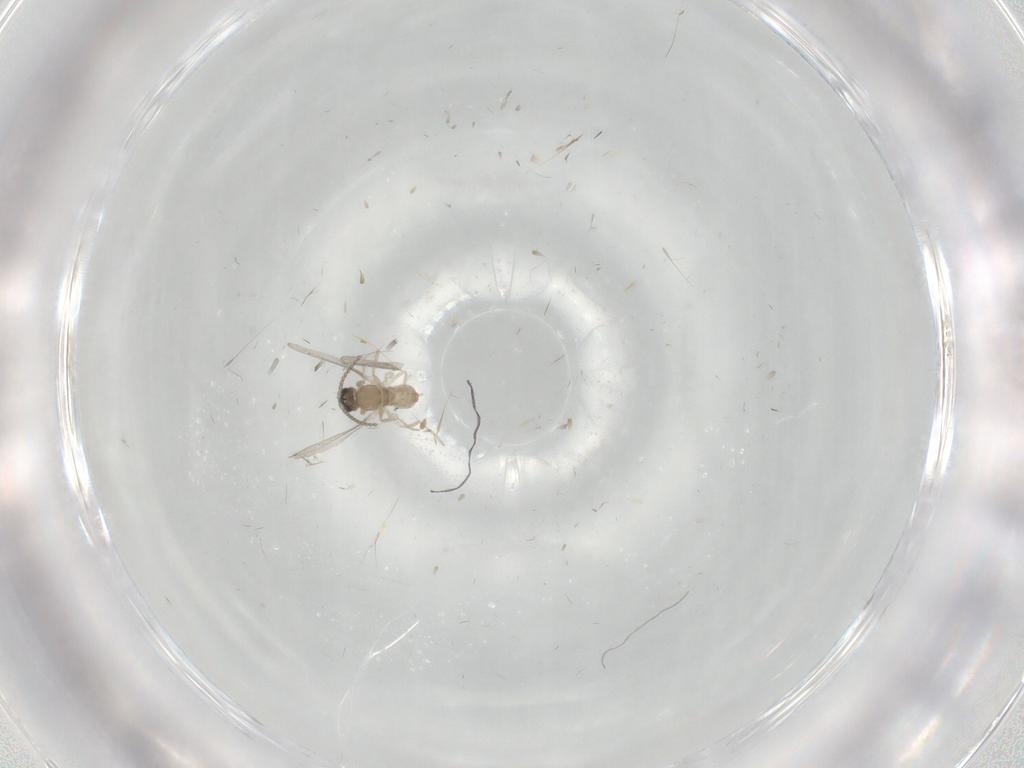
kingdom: Animalia
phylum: Arthropoda
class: Insecta
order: Diptera
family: Cecidomyiidae
